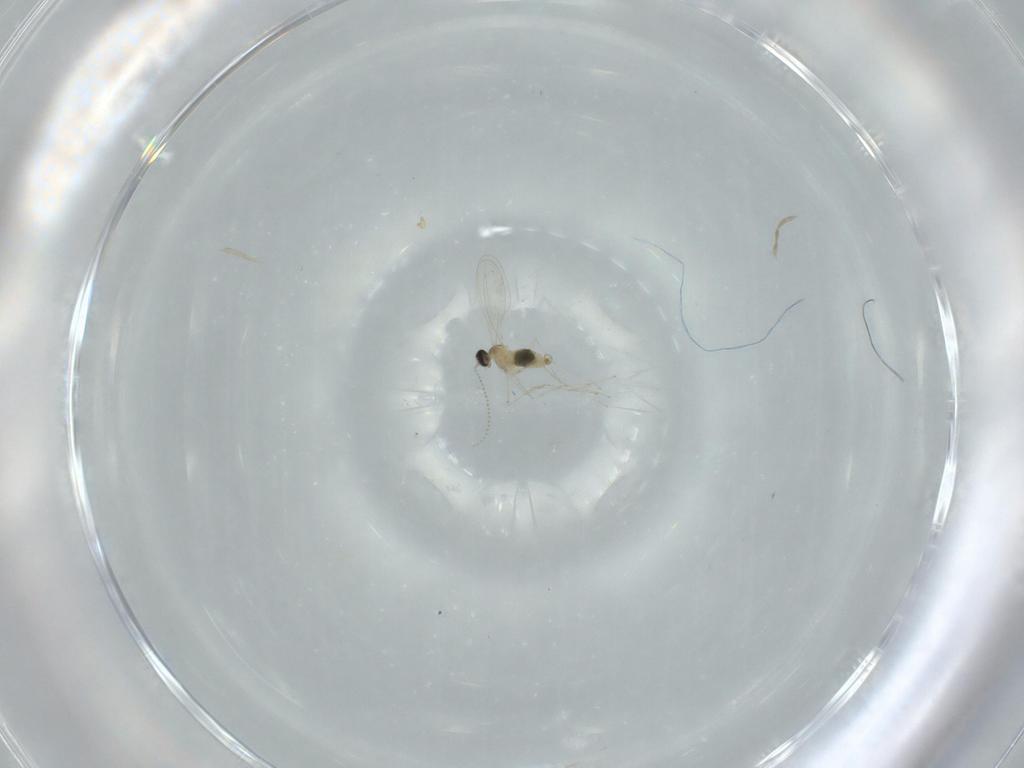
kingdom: Animalia
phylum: Arthropoda
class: Insecta
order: Diptera
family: Cecidomyiidae
